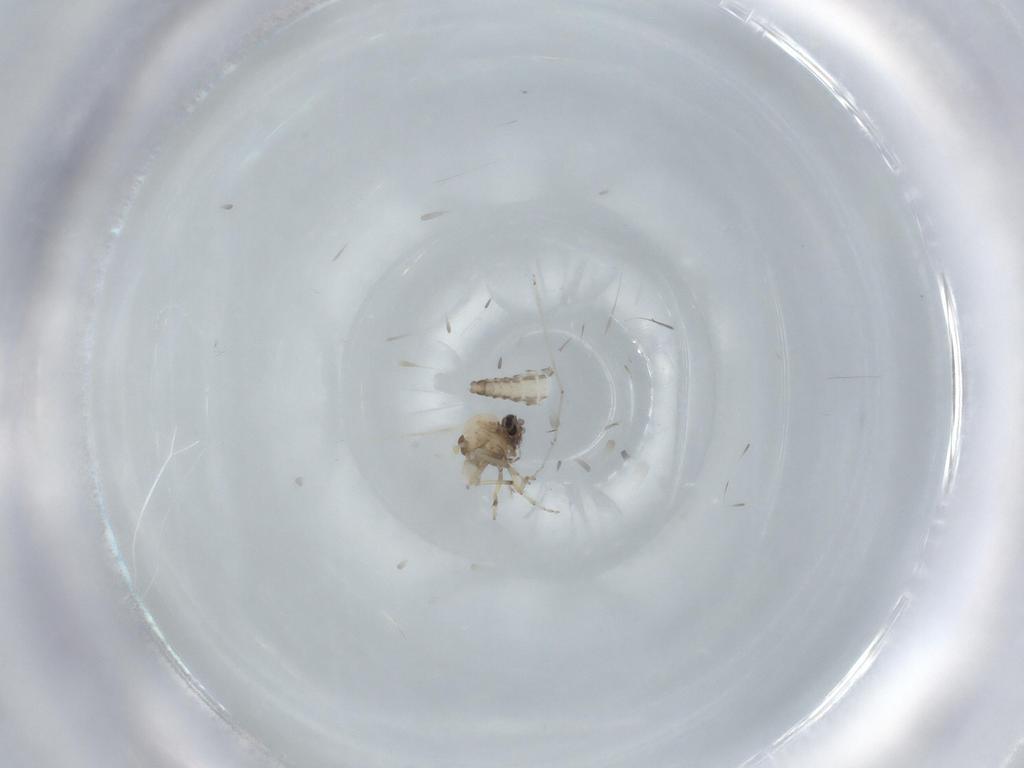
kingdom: Animalia
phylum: Arthropoda
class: Insecta
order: Diptera
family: Ceratopogonidae
